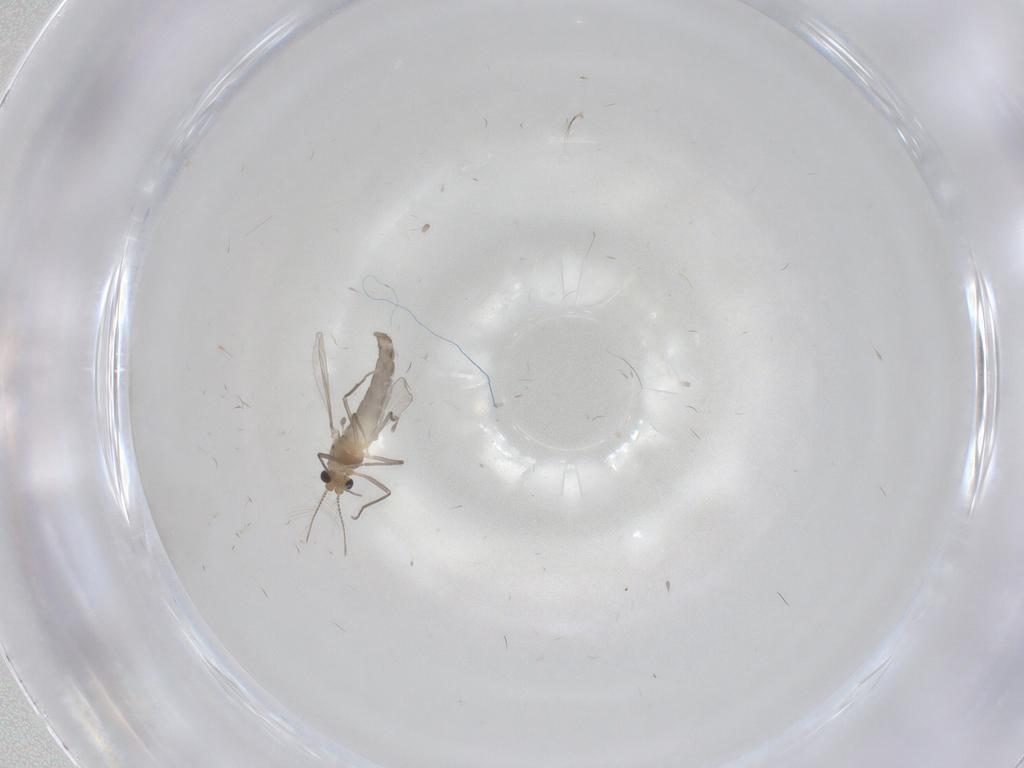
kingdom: Animalia
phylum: Arthropoda
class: Insecta
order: Diptera
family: Chironomidae
